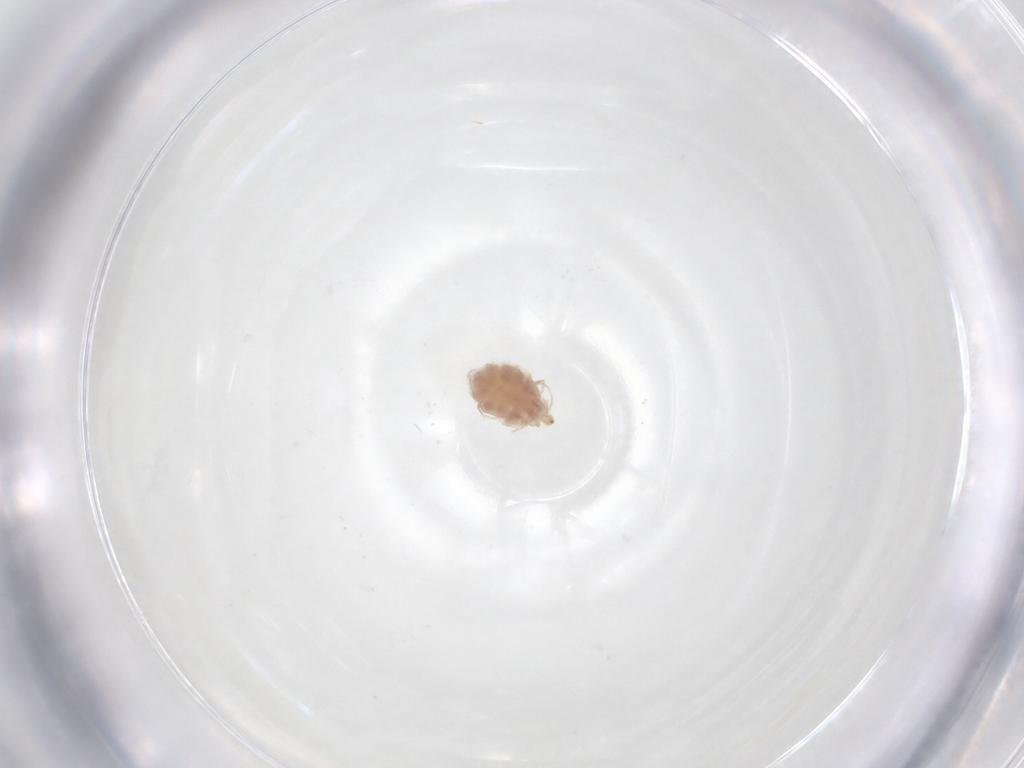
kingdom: Animalia
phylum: Arthropoda
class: Arachnida
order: Trombidiformes
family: Erythraeidae
